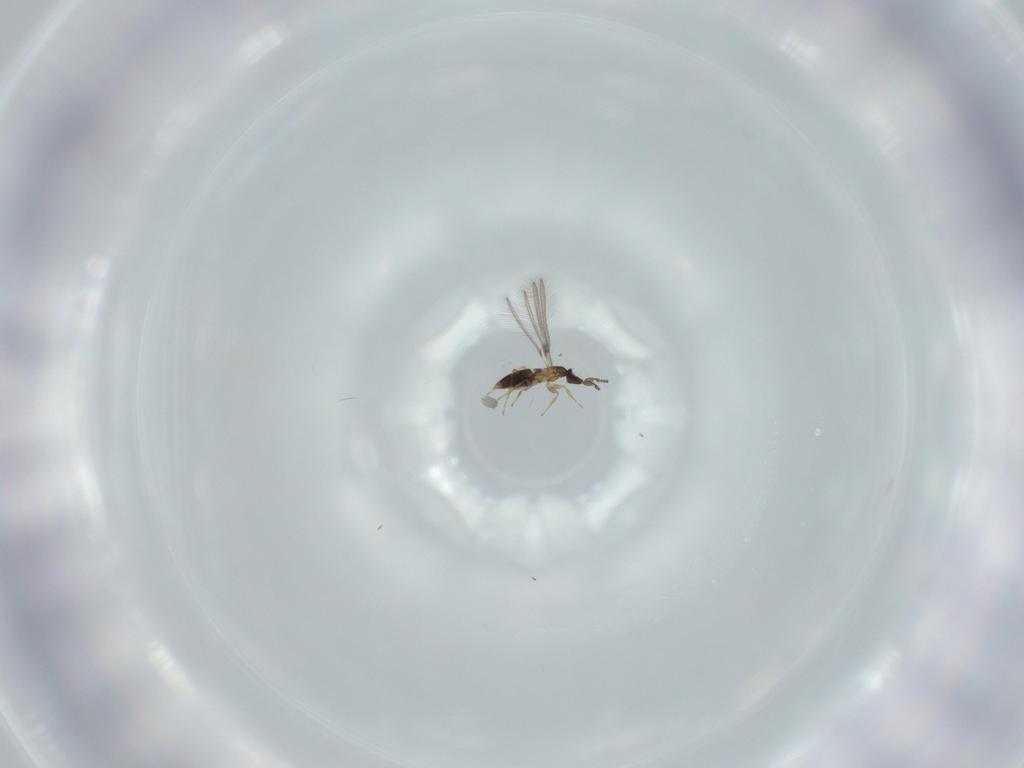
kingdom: Animalia
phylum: Arthropoda
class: Insecta
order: Hymenoptera
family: Mymaridae
